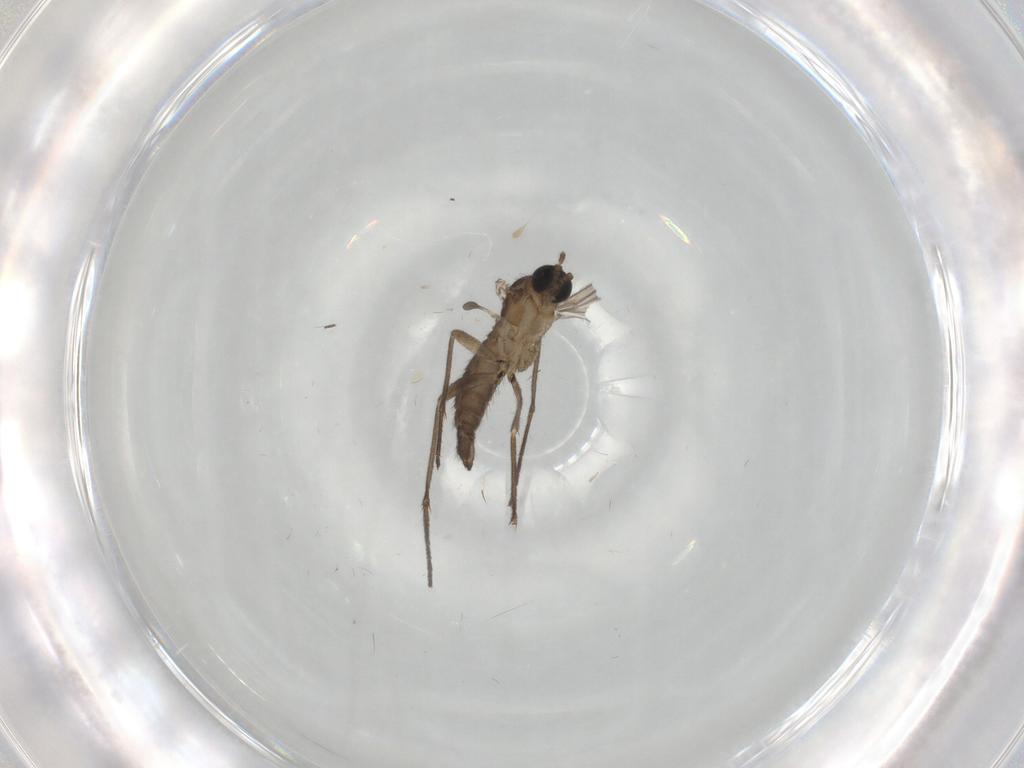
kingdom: Animalia
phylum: Arthropoda
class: Insecta
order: Diptera
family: Sciaridae
